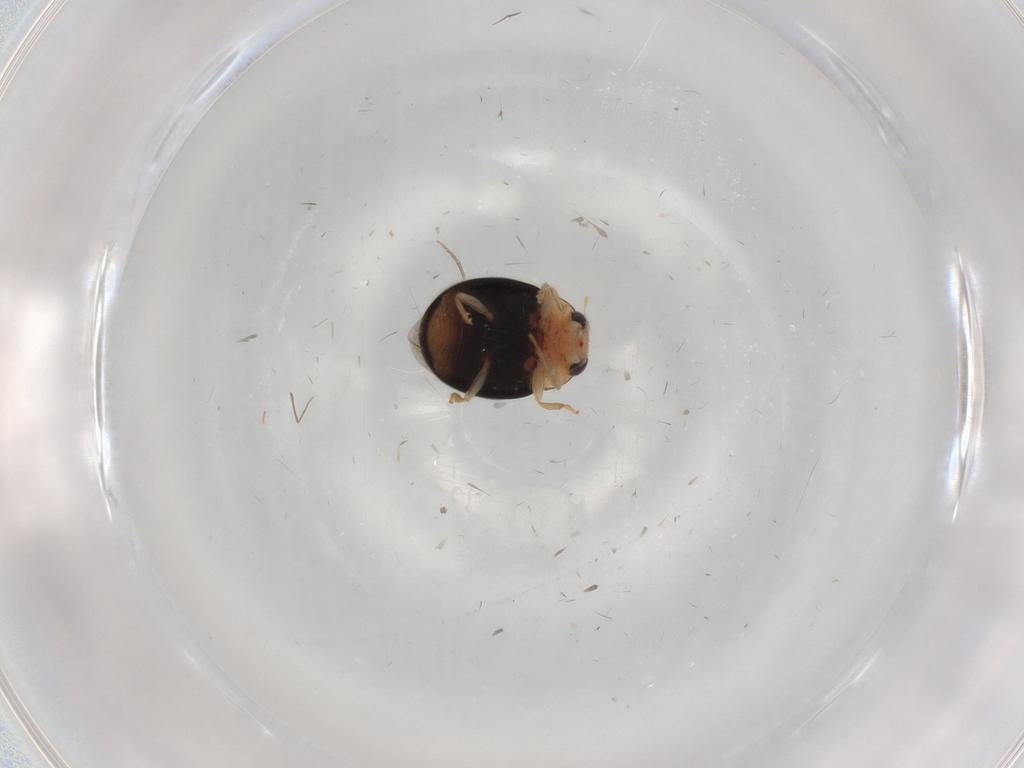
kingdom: Animalia
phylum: Arthropoda
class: Insecta
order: Coleoptera
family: Coccinellidae
